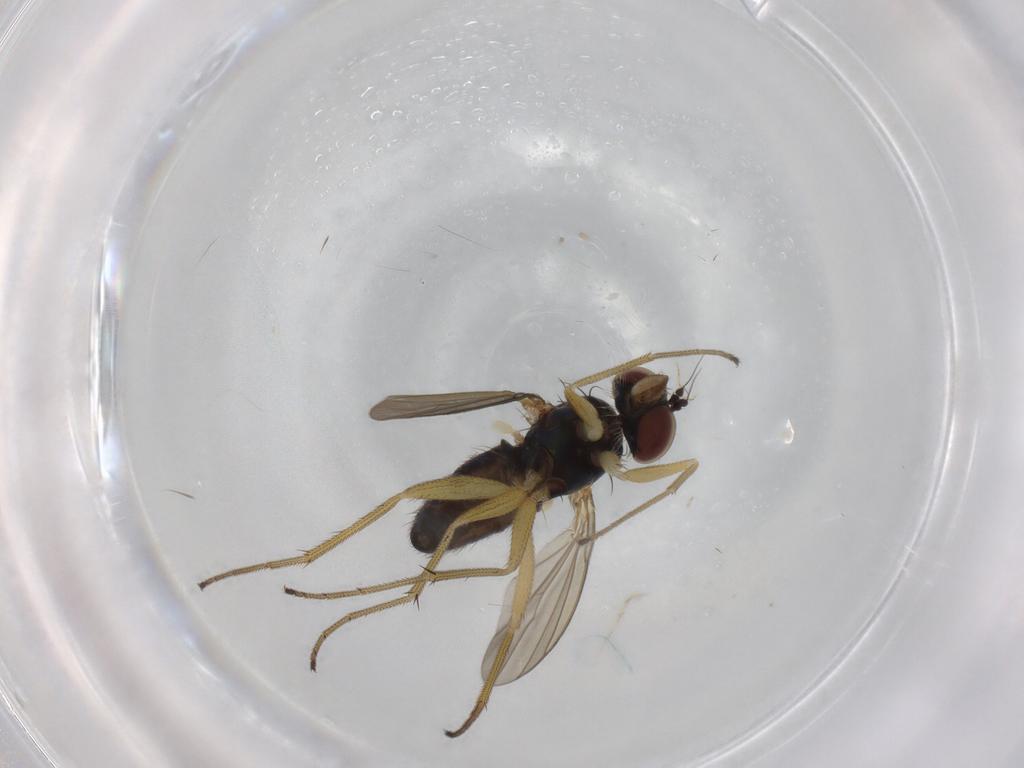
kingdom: Animalia
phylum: Arthropoda
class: Insecta
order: Diptera
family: Dolichopodidae
